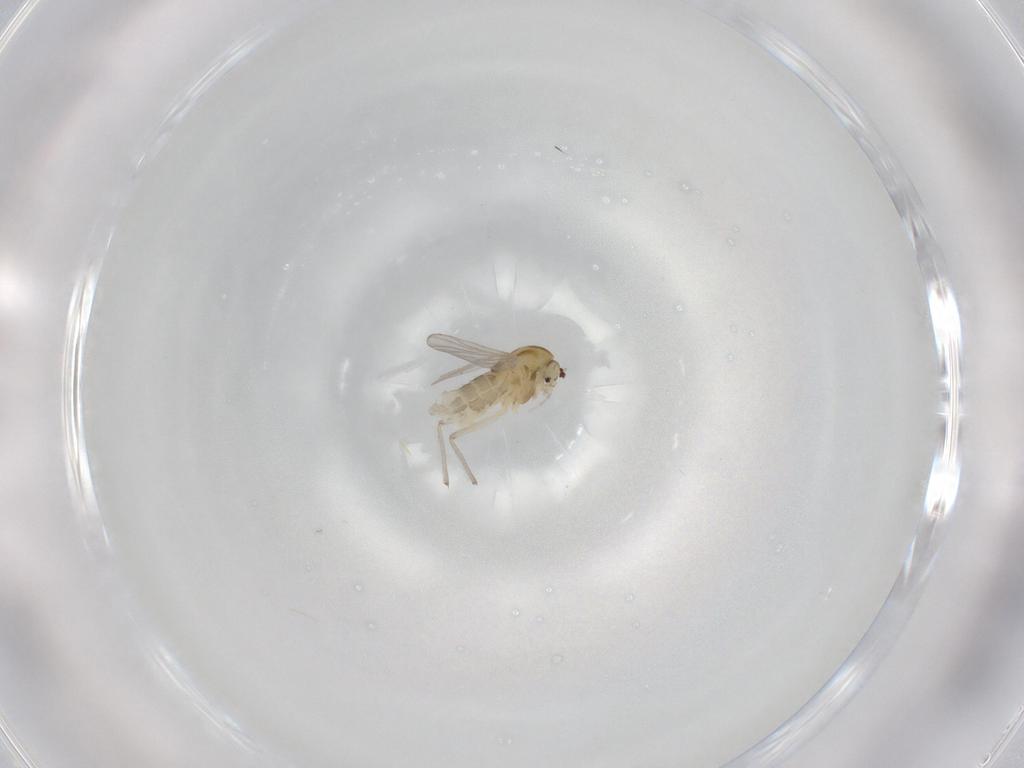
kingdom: Animalia
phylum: Arthropoda
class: Insecta
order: Diptera
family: Chironomidae
